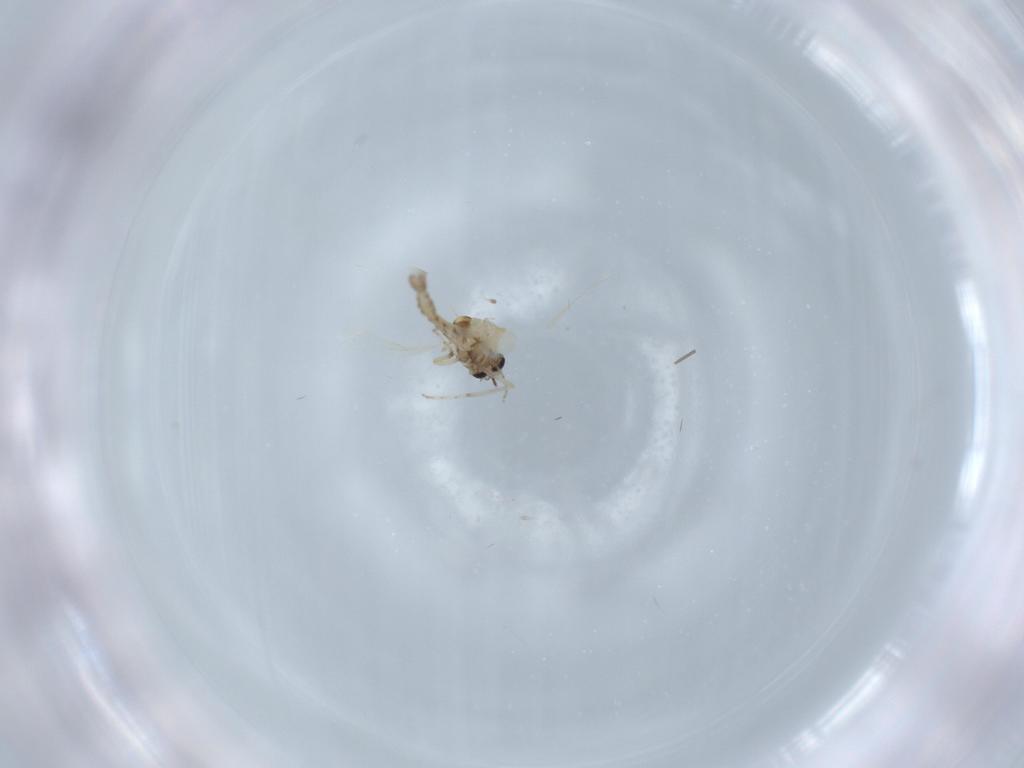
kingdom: Animalia
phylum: Arthropoda
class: Insecta
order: Diptera
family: Ceratopogonidae
